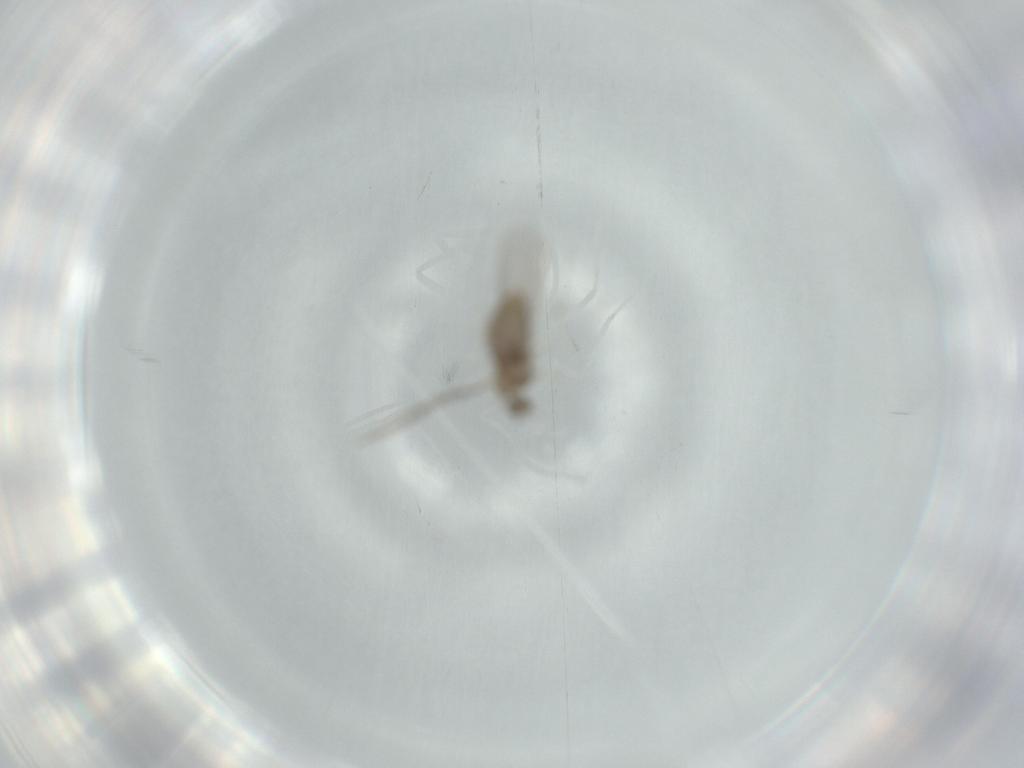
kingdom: Animalia
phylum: Arthropoda
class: Insecta
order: Diptera
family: Cecidomyiidae
